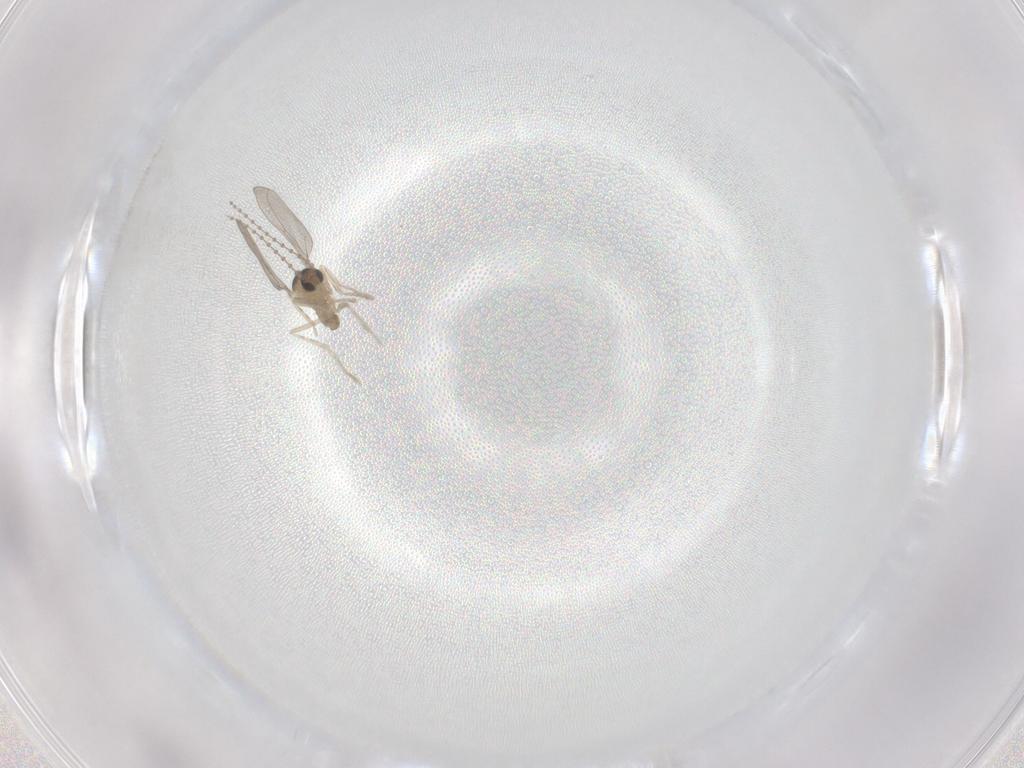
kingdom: Animalia
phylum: Arthropoda
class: Insecta
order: Diptera
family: Cecidomyiidae
